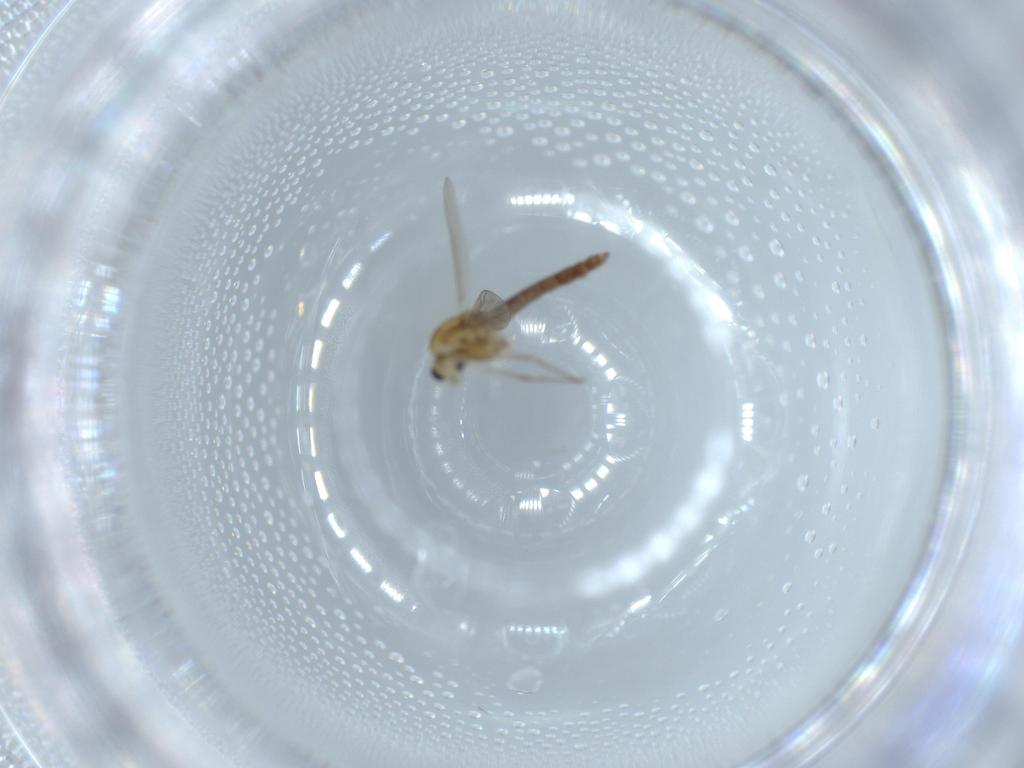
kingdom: Animalia
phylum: Arthropoda
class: Insecta
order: Diptera
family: Chironomidae
